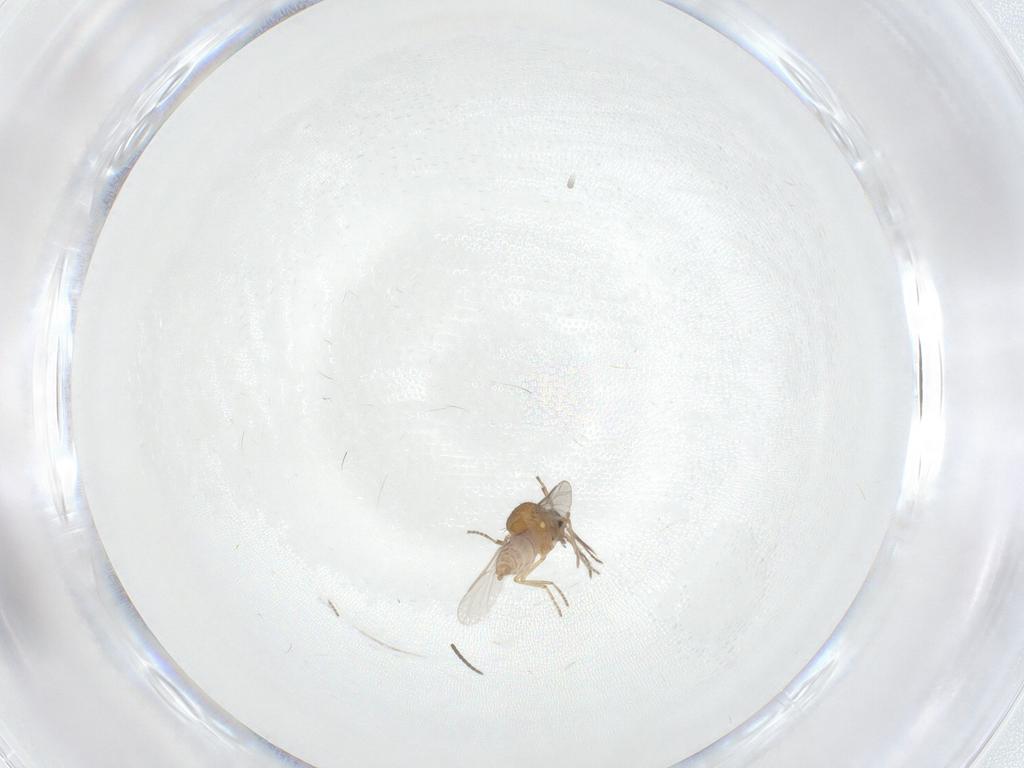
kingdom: Animalia
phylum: Arthropoda
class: Insecta
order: Diptera
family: Ceratopogonidae
